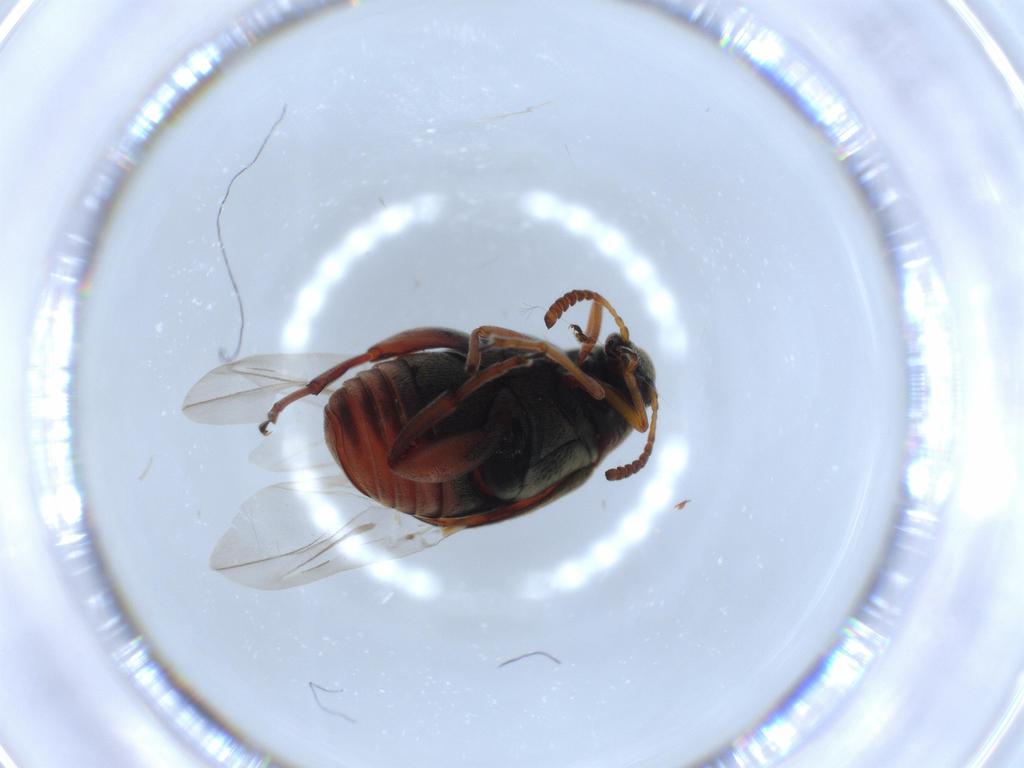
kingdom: Animalia
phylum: Arthropoda
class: Insecta
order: Coleoptera
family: Chrysomelidae
